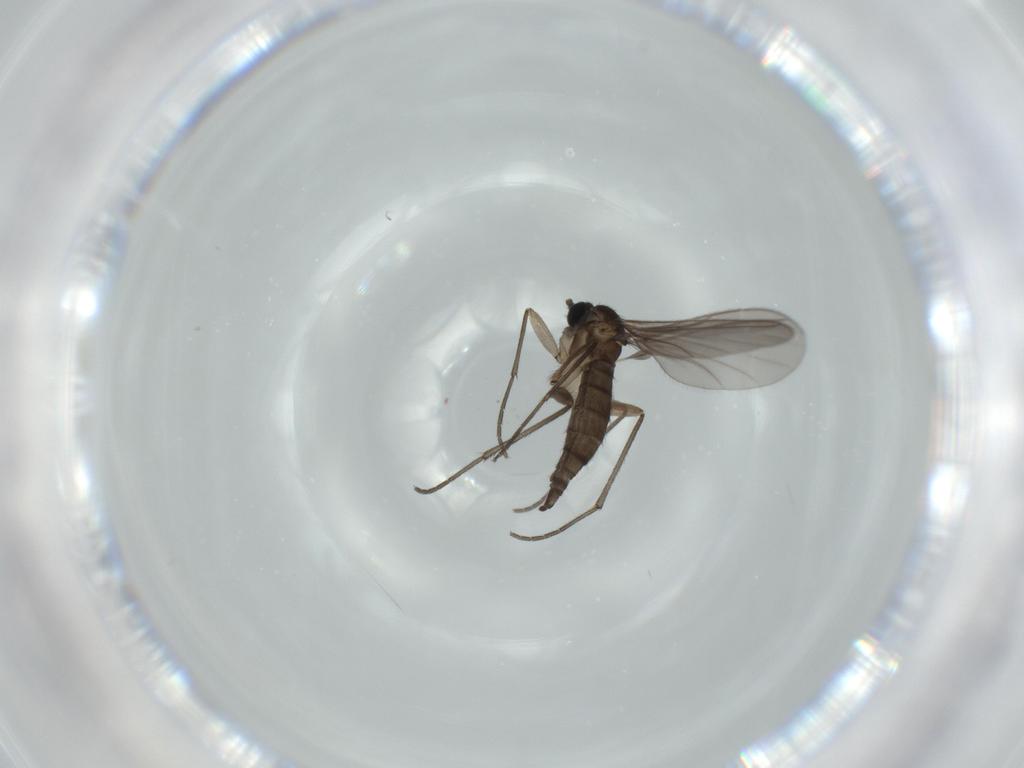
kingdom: Animalia
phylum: Arthropoda
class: Insecta
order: Diptera
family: Sciaridae
